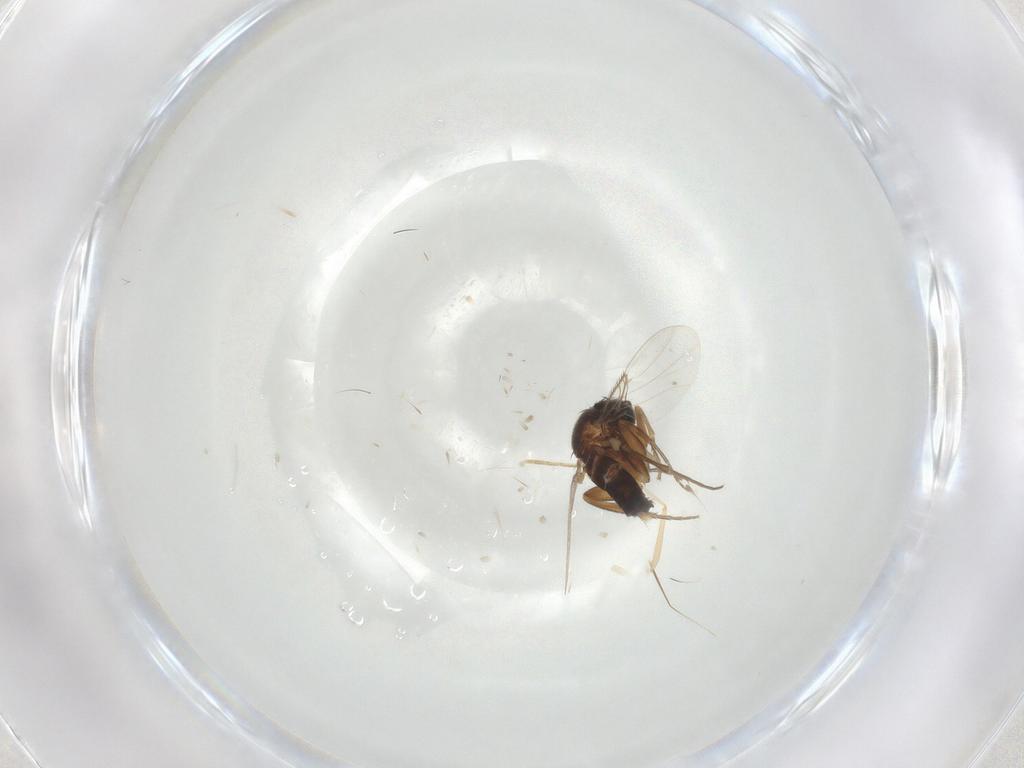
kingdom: Animalia
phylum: Arthropoda
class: Insecta
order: Diptera
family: Phoridae
